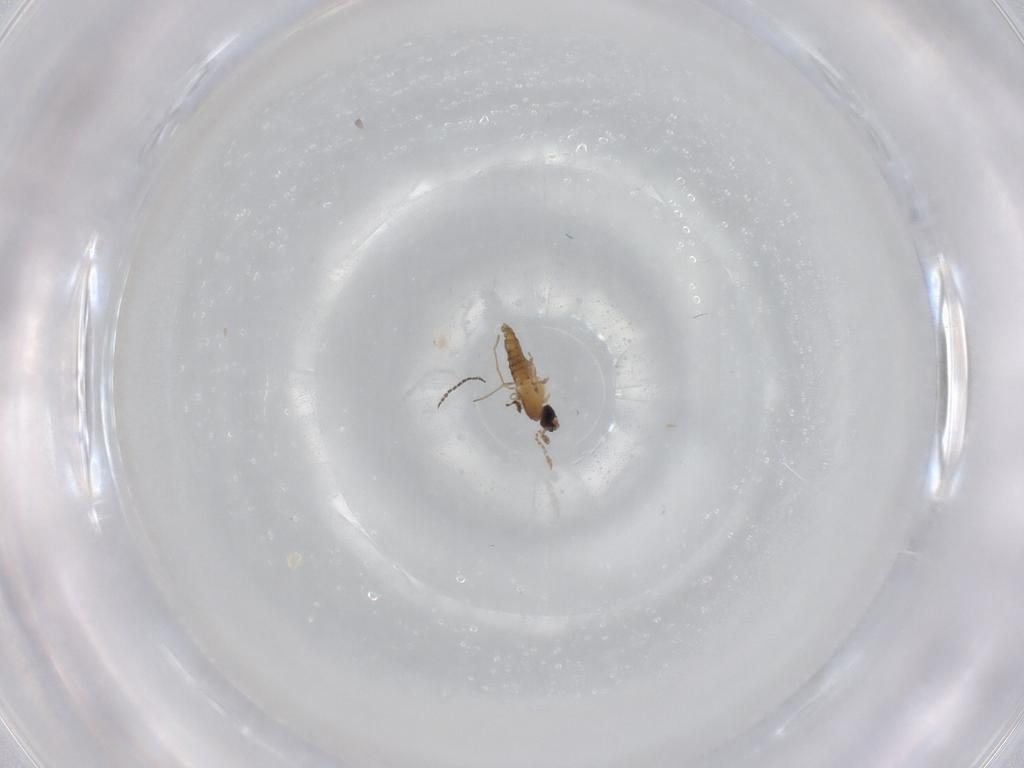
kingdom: Animalia
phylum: Arthropoda
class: Insecta
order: Diptera
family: Cecidomyiidae
